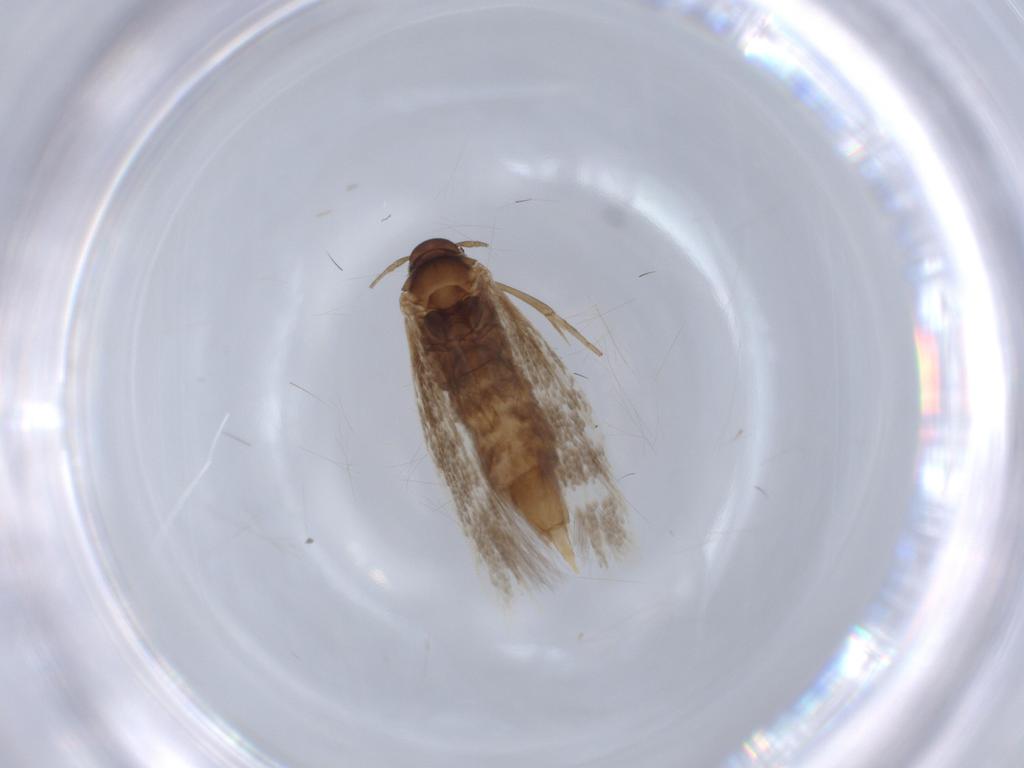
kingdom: Animalia
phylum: Arthropoda
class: Insecta
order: Lepidoptera
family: Elachistidae
